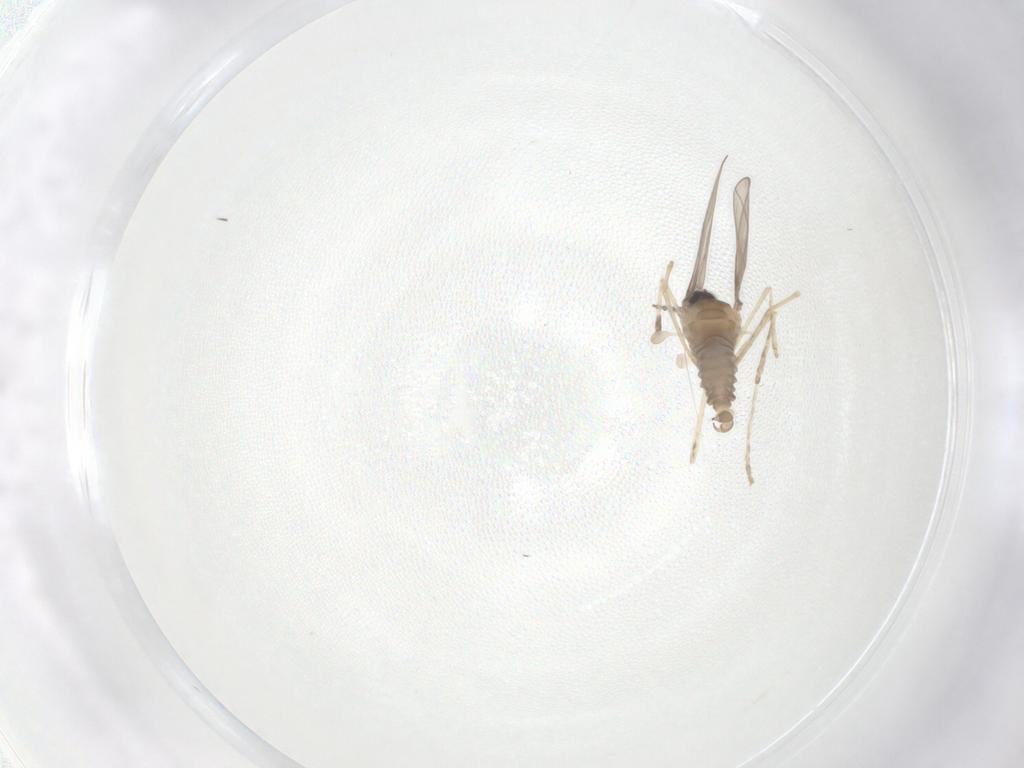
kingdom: Animalia
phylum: Arthropoda
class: Insecta
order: Diptera
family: Cecidomyiidae
